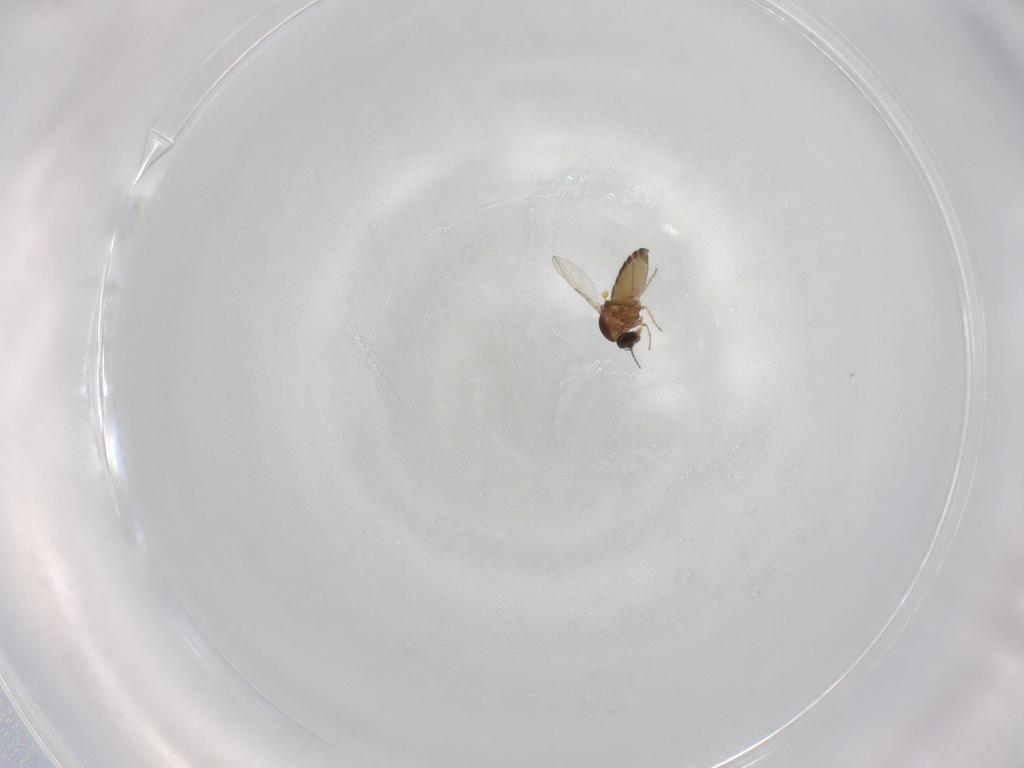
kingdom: Animalia
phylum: Arthropoda
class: Insecta
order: Diptera
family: Ceratopogonidae
